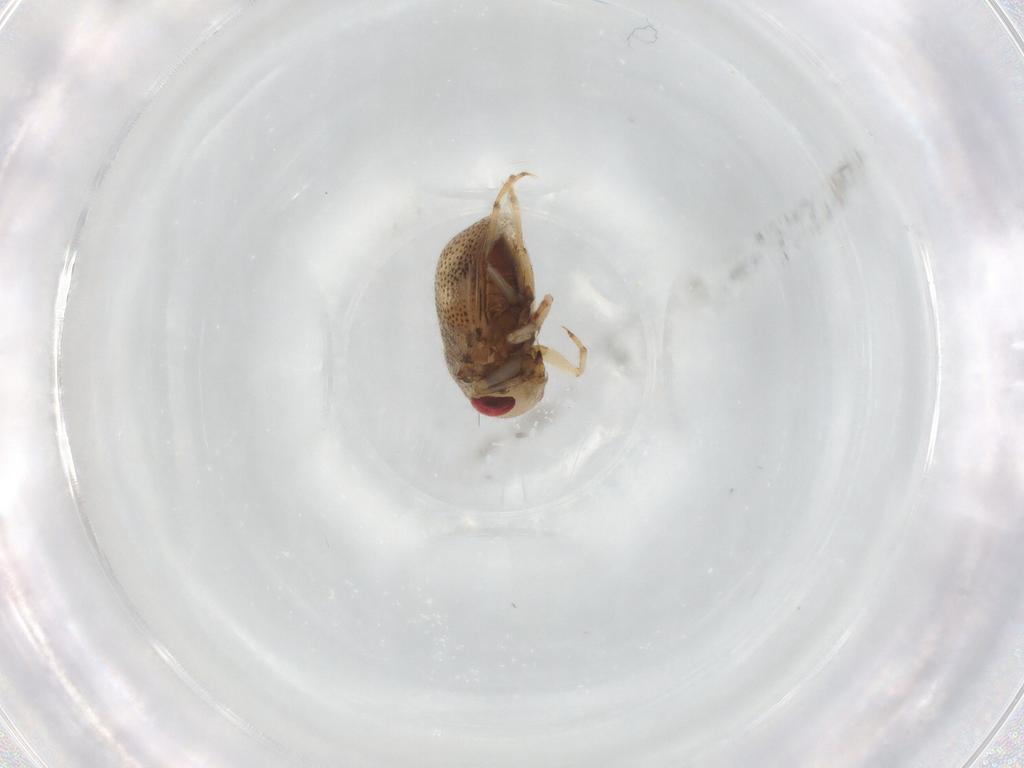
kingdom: Animalia
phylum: Arthropoda
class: Insecta
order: Hemiptera
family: Pleidae
